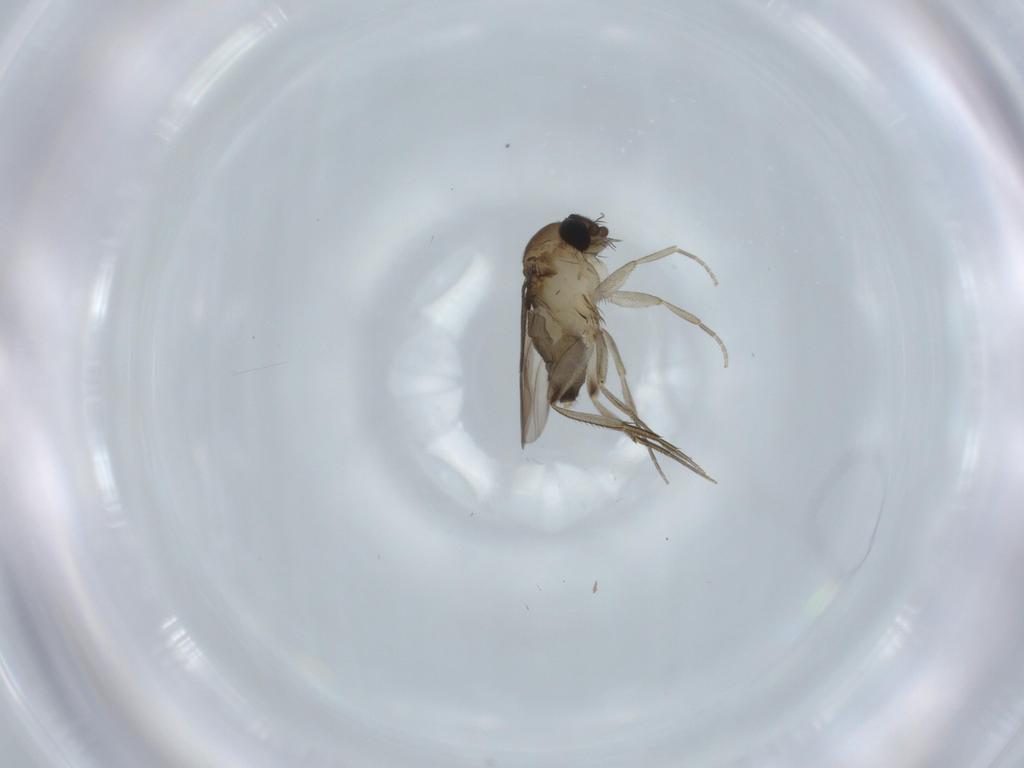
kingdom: Animalia
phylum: Arthropoda
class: Insecta
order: Diptera
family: Phoridae
